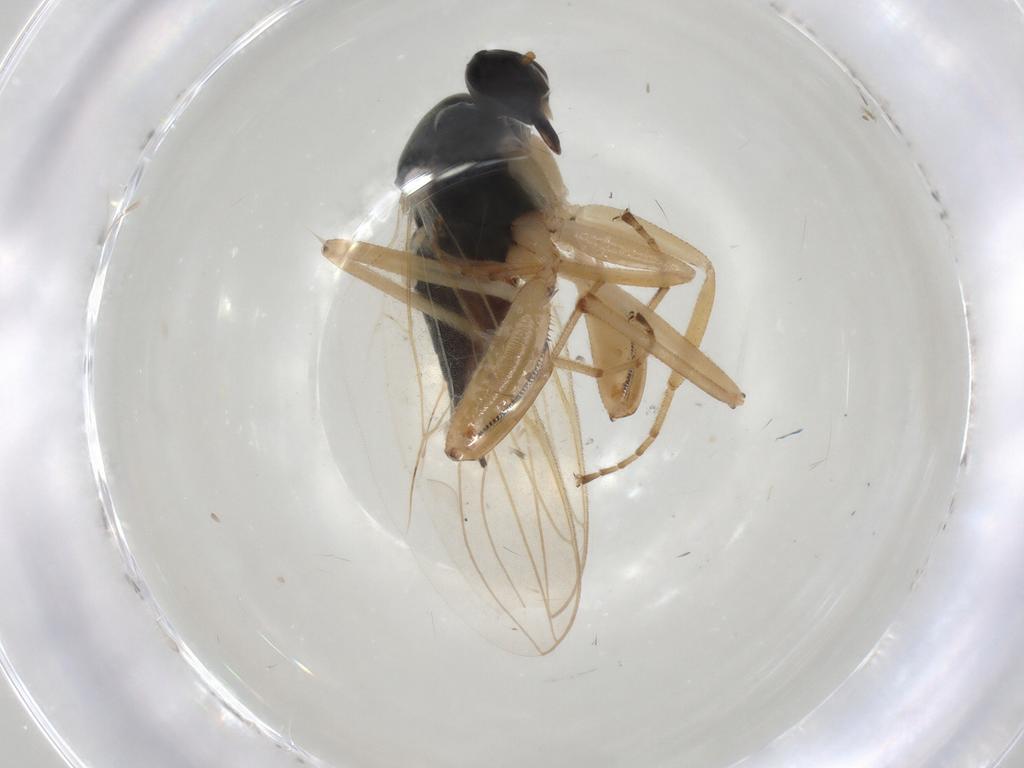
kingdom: Animalia
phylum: Arthropoda
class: Insecta
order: Diptera
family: Hybotidae
